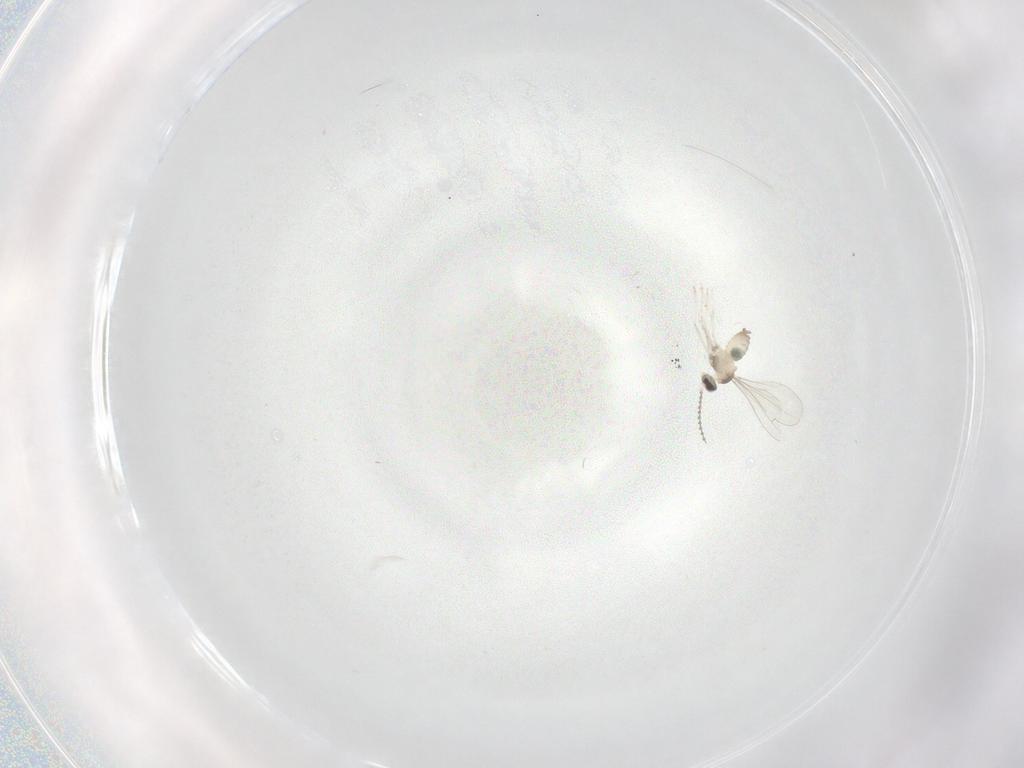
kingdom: Animalia
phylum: Arthropoda
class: Insecta
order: Diptera
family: Cecidomyiidae
